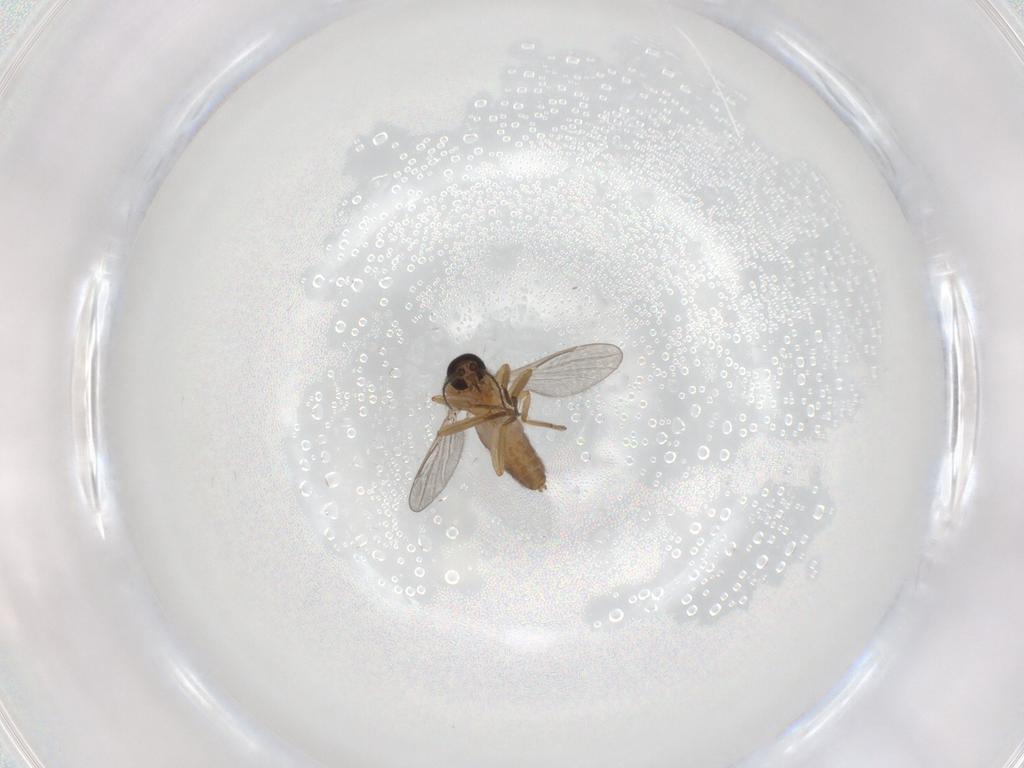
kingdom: Animalia
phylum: Arthropoda
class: Insecta
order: Diptera
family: Ceratopogonidae
